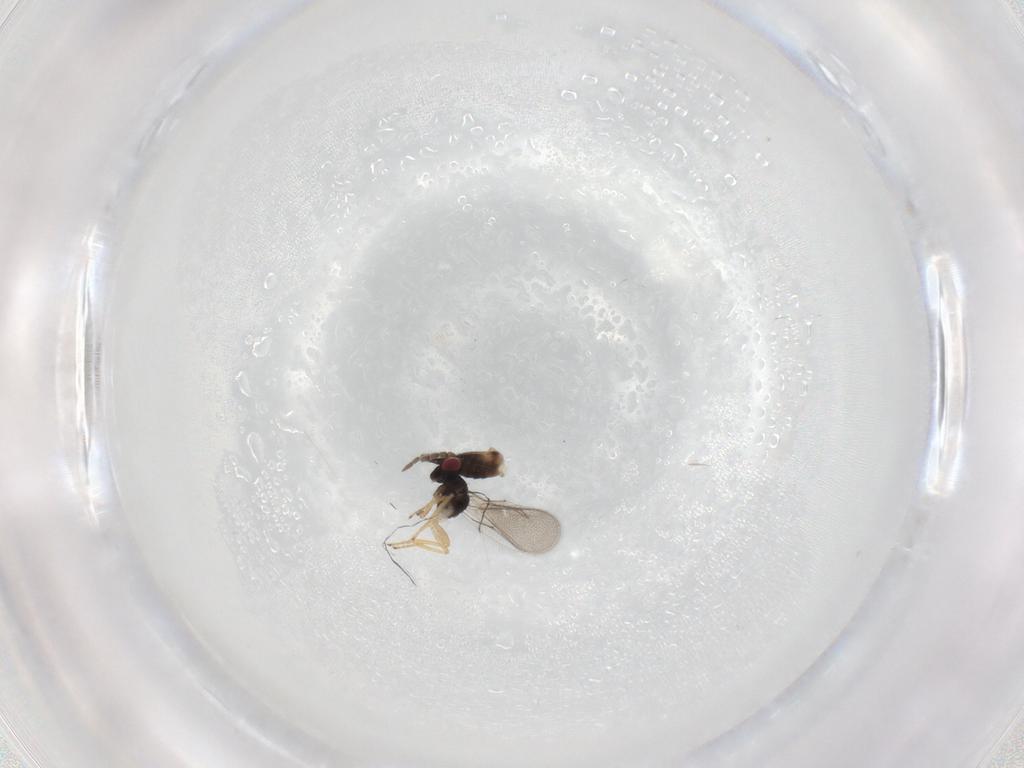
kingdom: Animalia
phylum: Arthropoda
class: Insecta
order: Hymenoptera
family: Eulophidae
